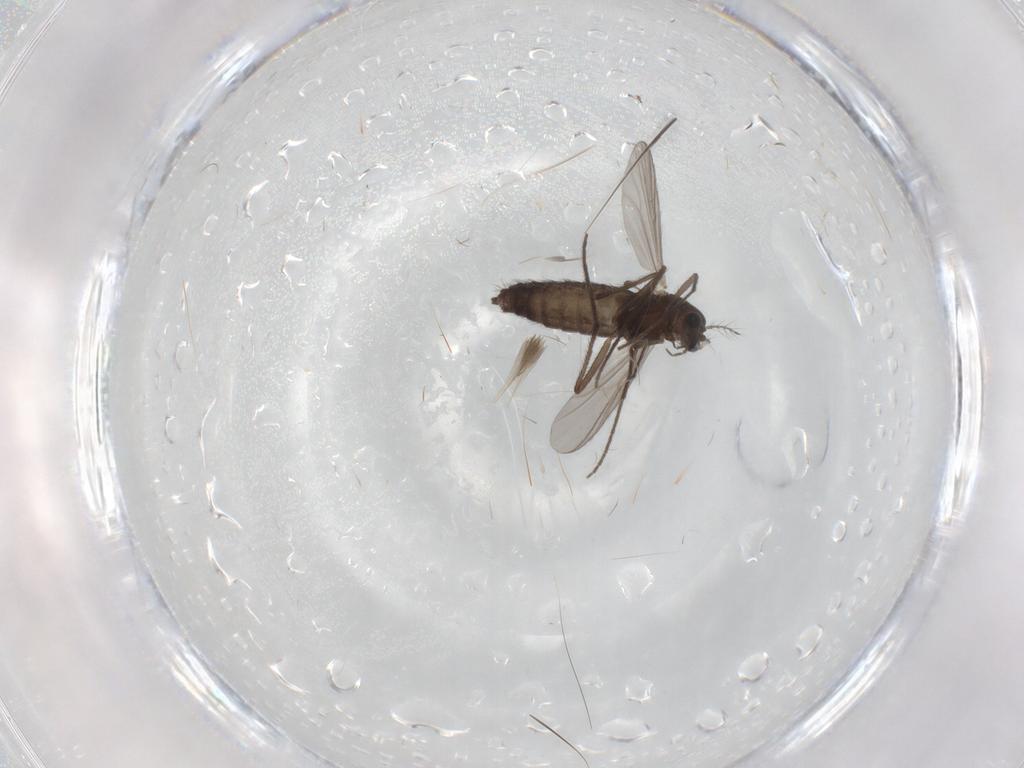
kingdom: Animalia
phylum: Arthropoda
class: Insecta
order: Diptera
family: Chironomidae
